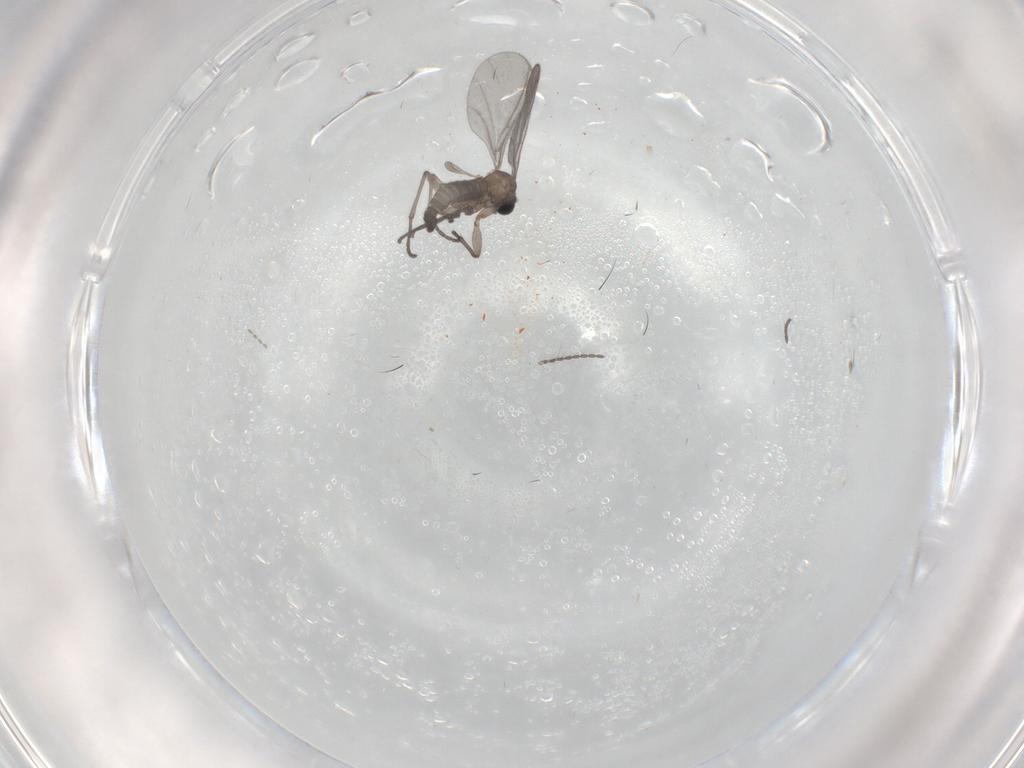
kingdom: Animalia
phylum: Arthropoda
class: Insecta
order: Diptera
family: Sciaridae
